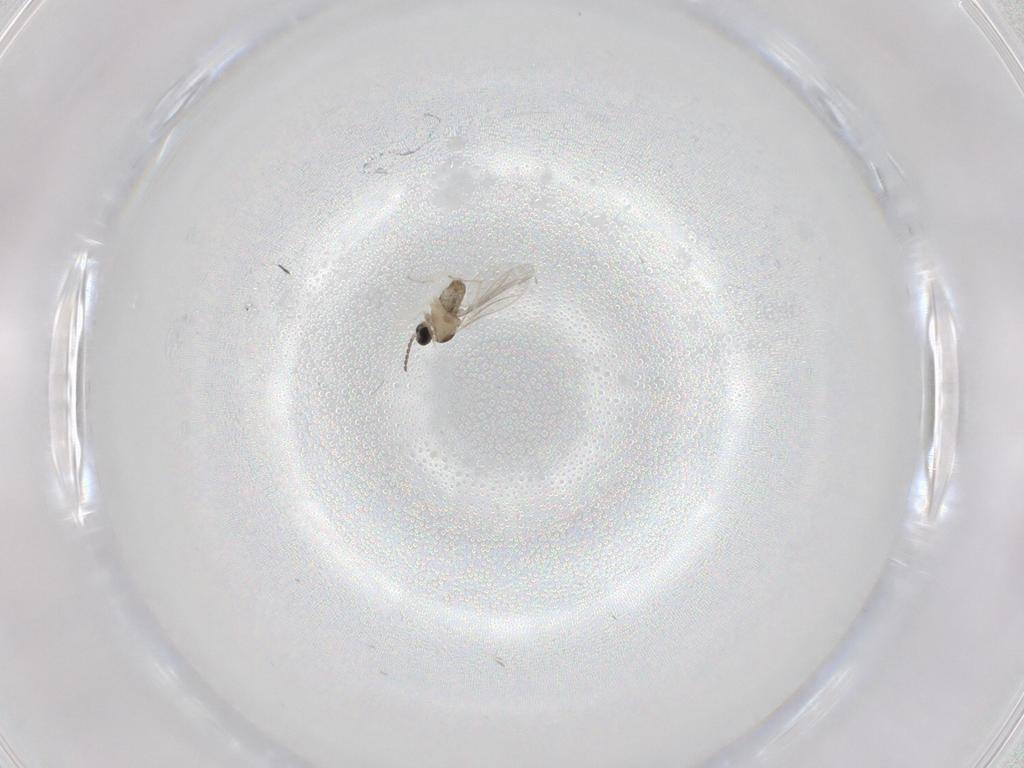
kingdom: Animalia
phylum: Arthropoda
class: Insecta
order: Diptera
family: Cecidomyiidae
